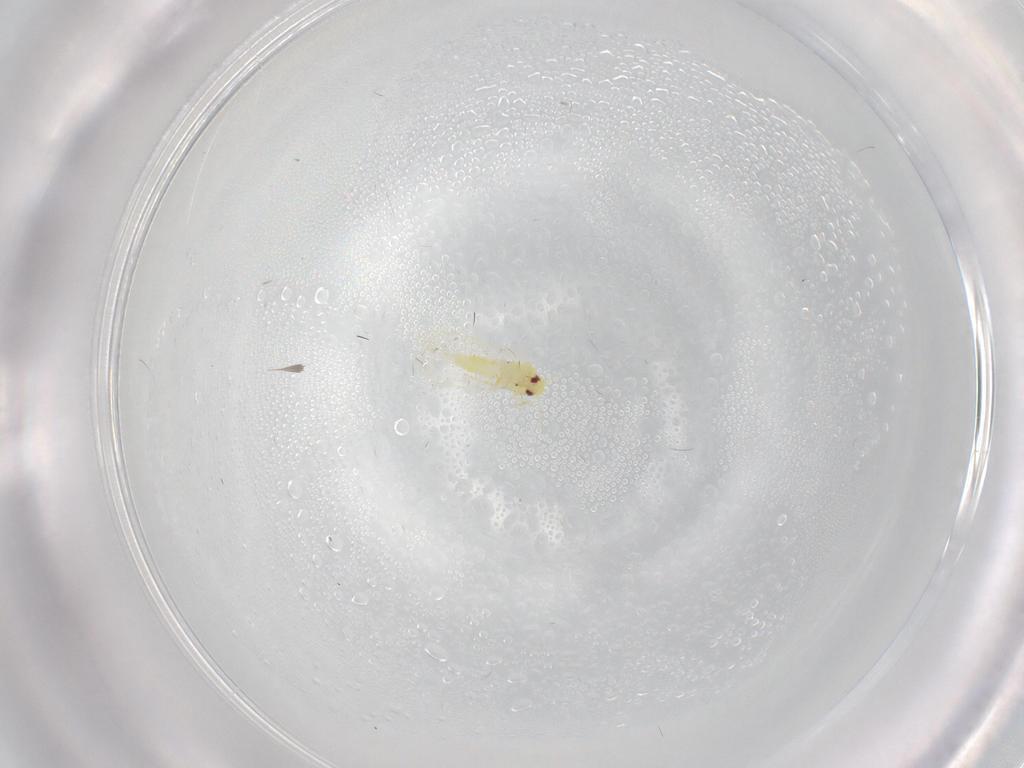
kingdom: Animalia
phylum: Arthropoda
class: Insecta
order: Hemiptera
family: Aleyrodidae
